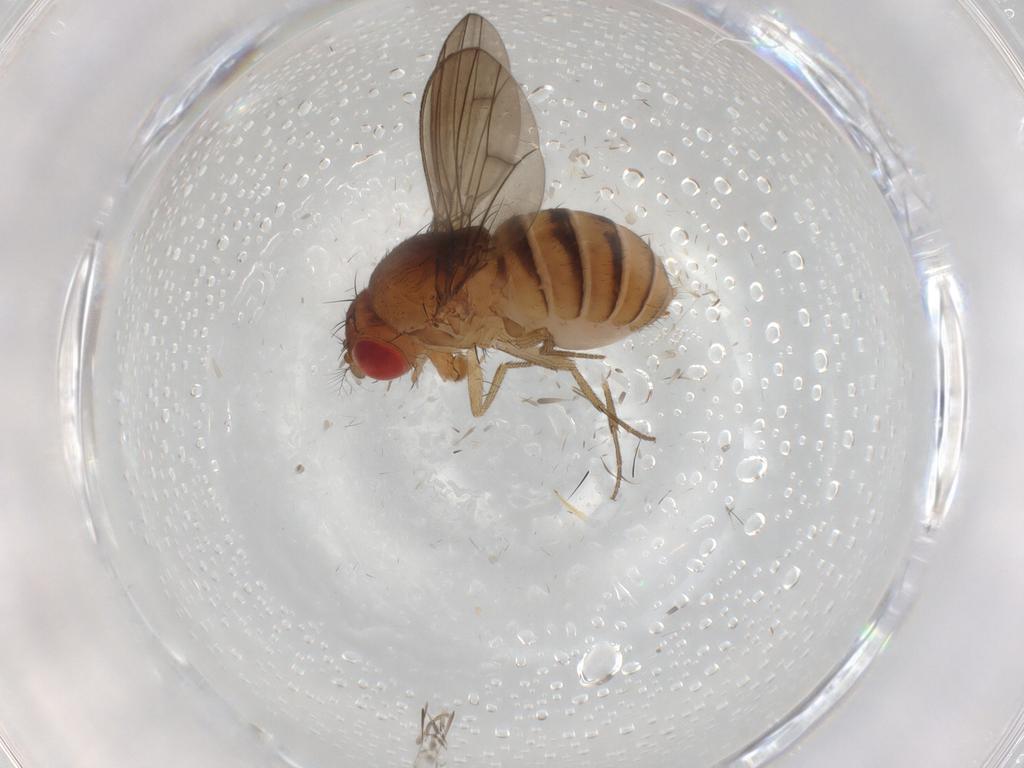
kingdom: Animalia
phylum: Arthropoda
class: Insecta
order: Diptera
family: Drosophilidae
